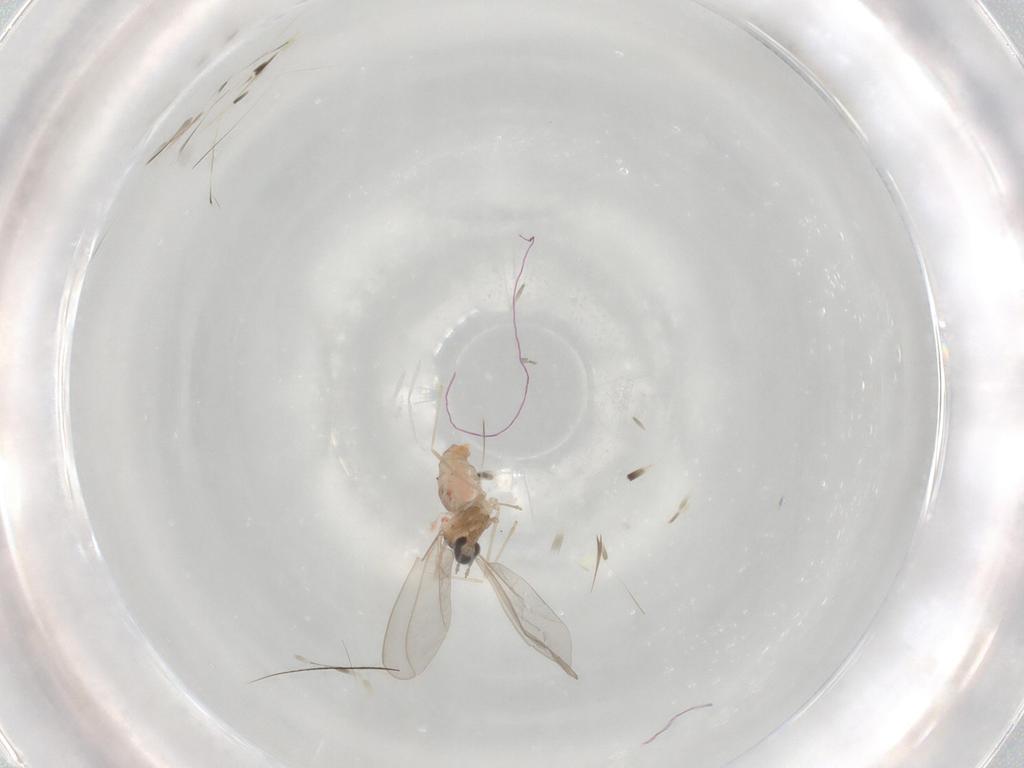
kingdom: Animalia
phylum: Arthropoda
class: Insecta
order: Diptera
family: Cecidomyiidae
